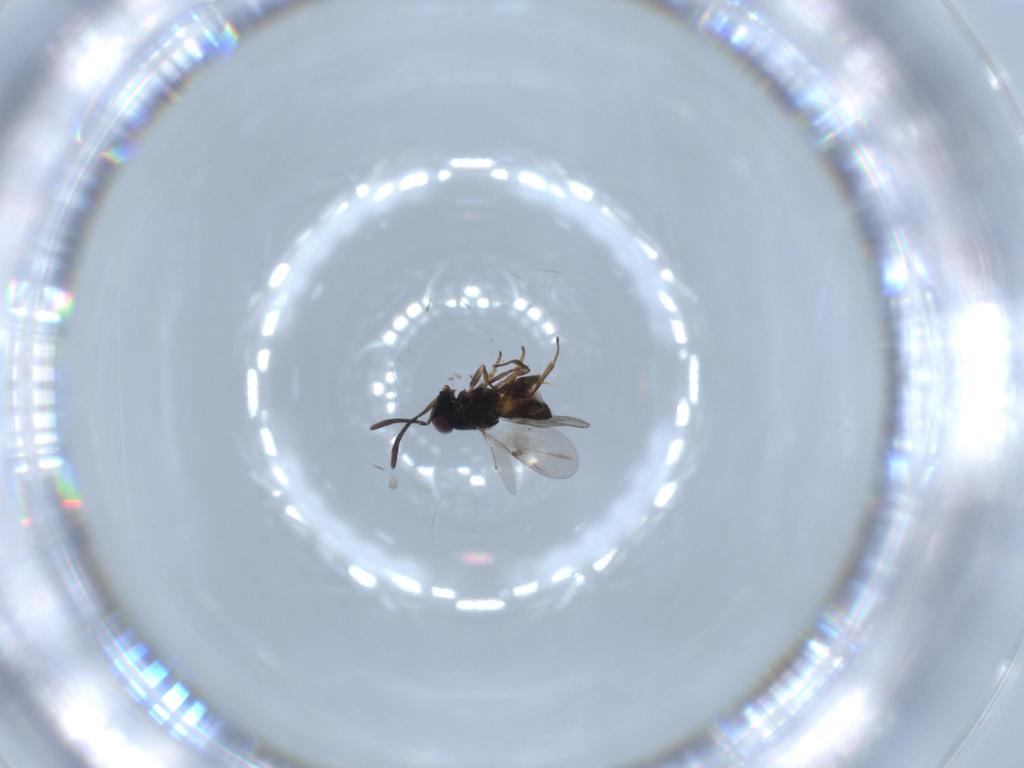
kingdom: Animalia
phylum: Arthropoda
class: Insecta
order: Hymenoptera
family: Encyrtidae
